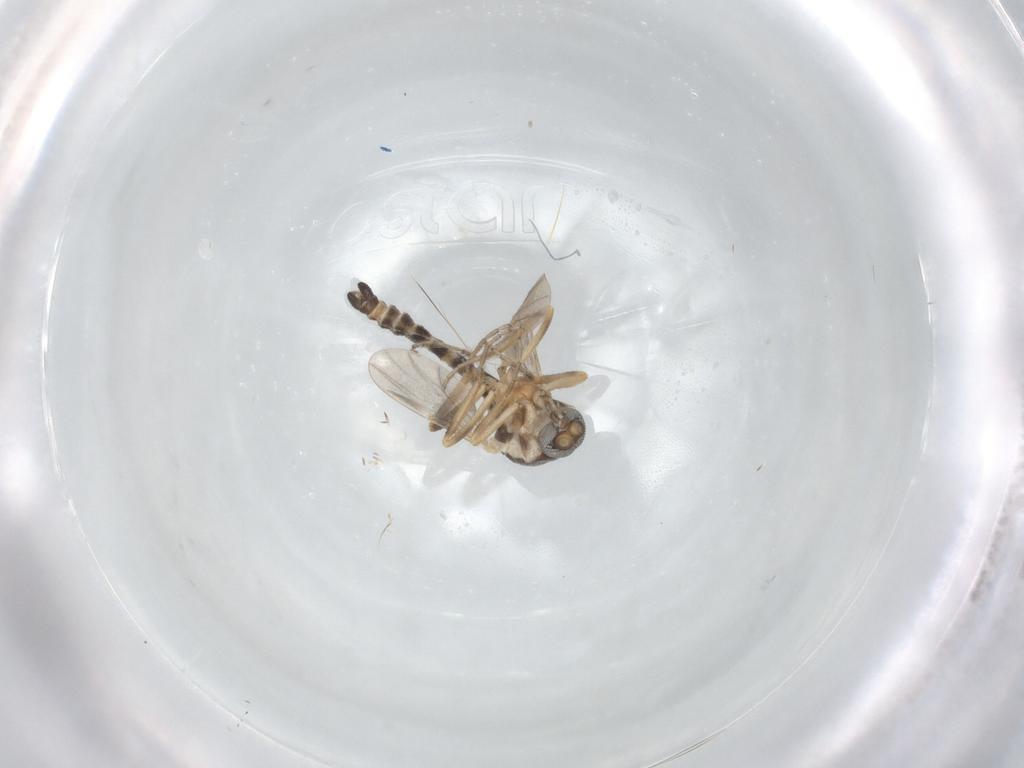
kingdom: Animalia
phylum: Arthropoda
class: Insecta
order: Diptera
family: Ceratopogonidae
